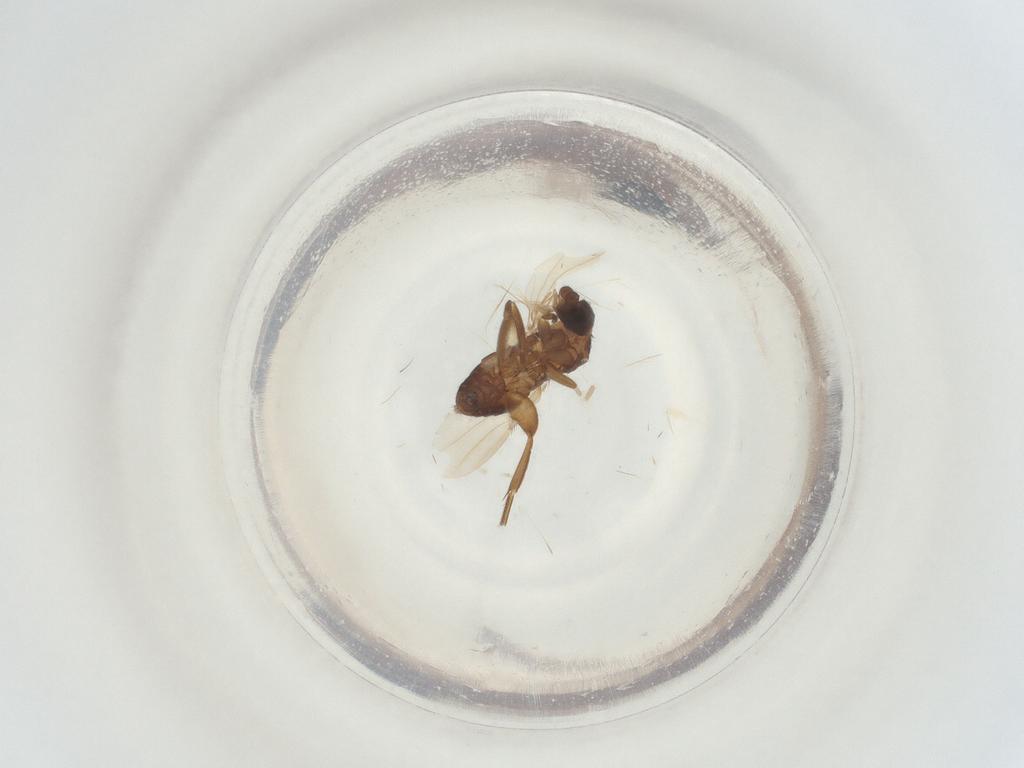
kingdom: Animalia
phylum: Arthropoda
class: Insecta
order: Diptera
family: Phoridae
